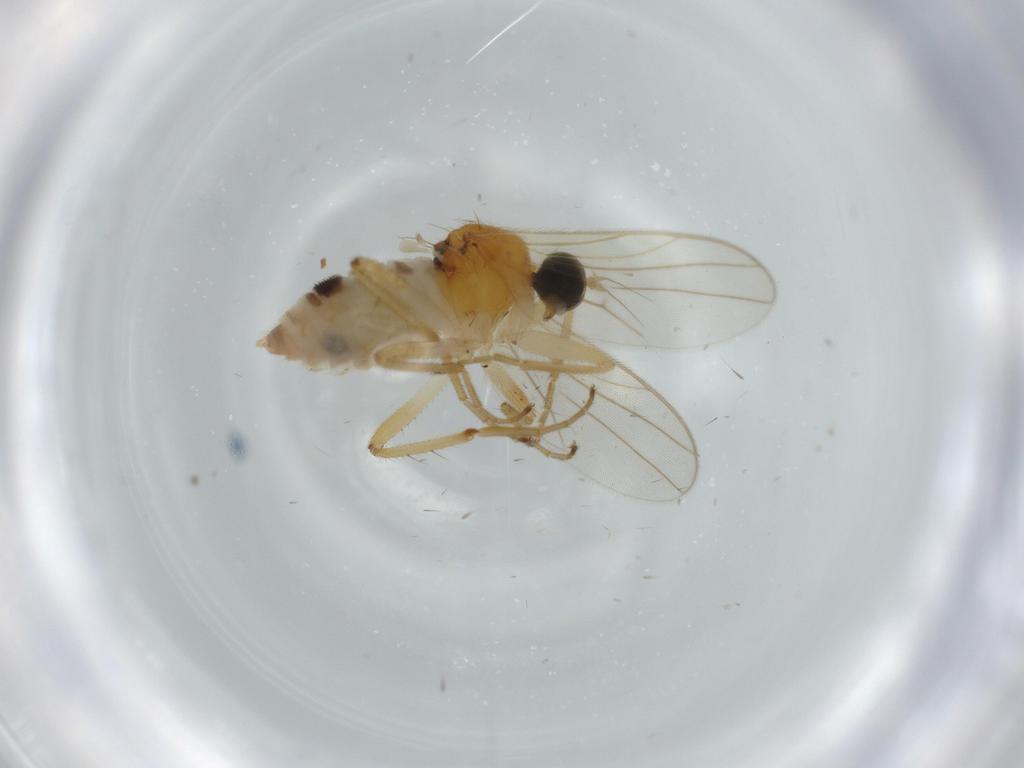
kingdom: Animalia
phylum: Arthropoda
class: Insecta
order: Diptera
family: Hybotidae
